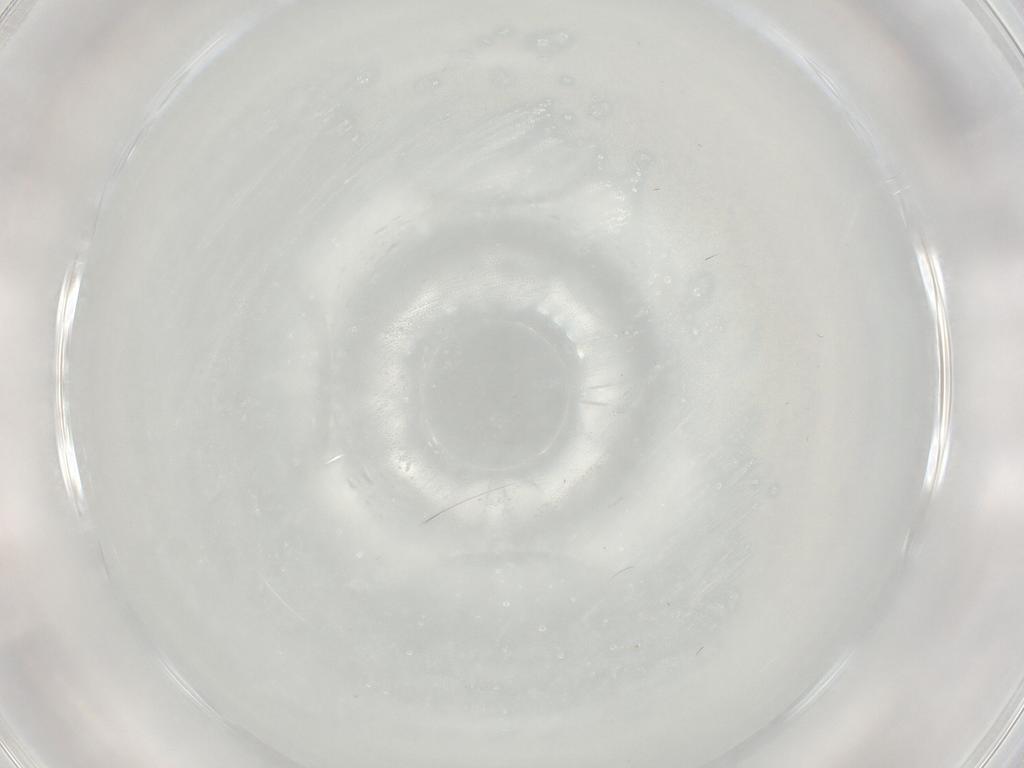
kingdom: Animalia
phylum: Arthropoda
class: Insecta
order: Diptera
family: Cecidomyiidae
